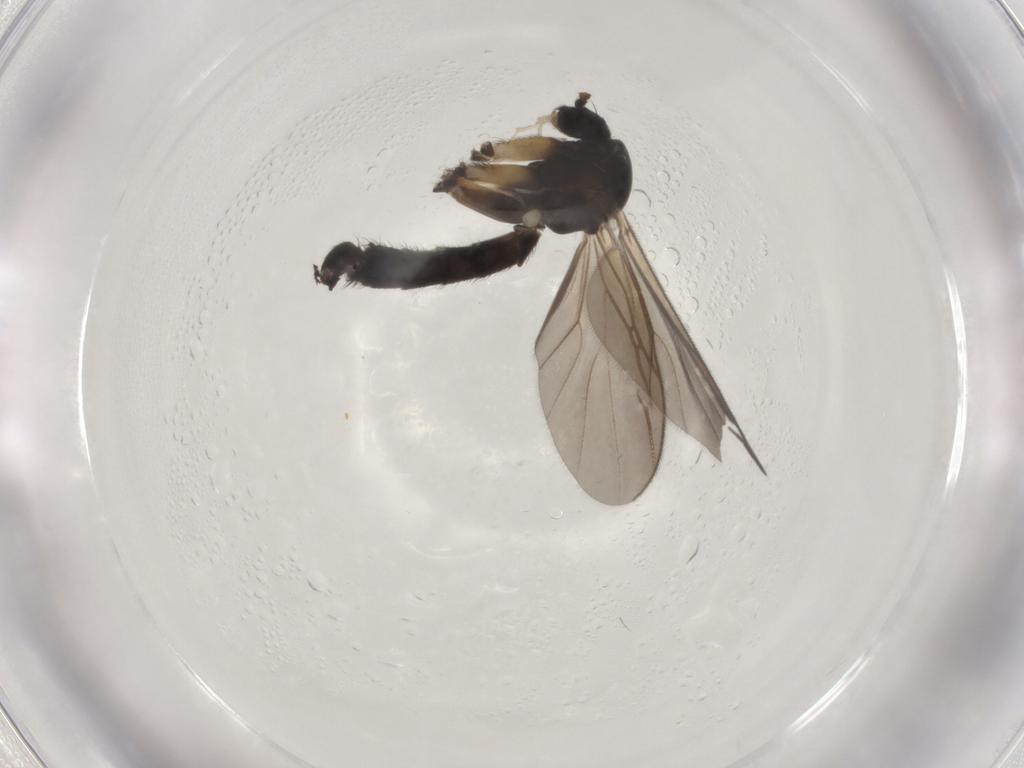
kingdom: Animalia
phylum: Arthropoda
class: Insecta
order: Diptera
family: Mycetophilidae
